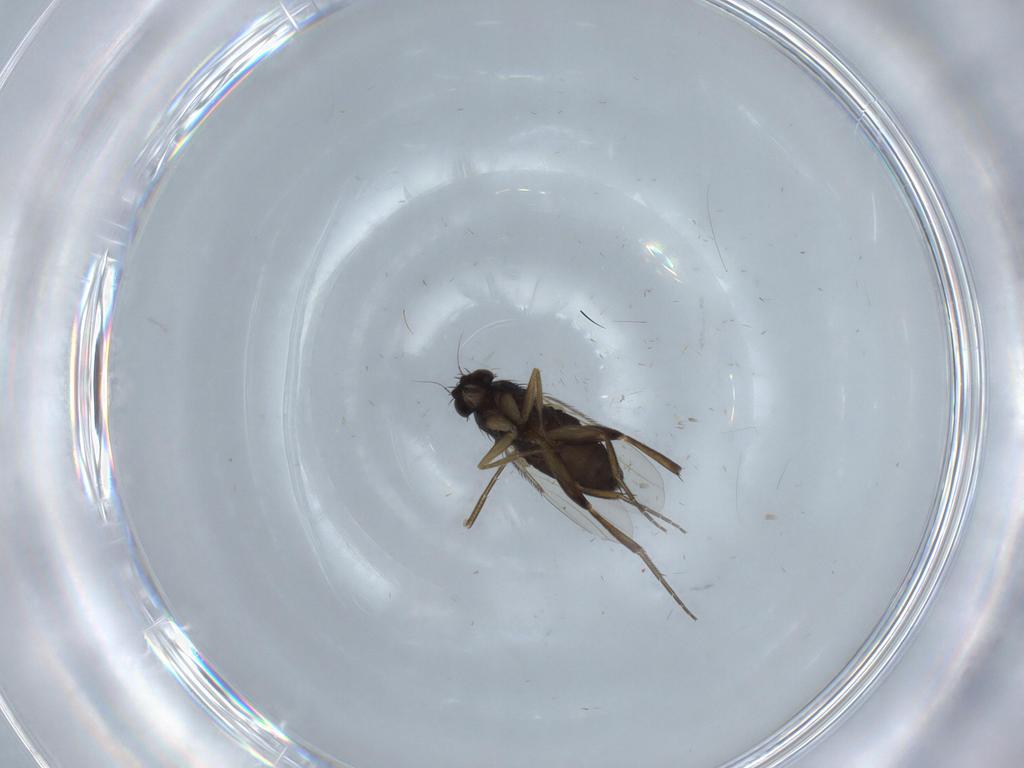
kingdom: Animalia
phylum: Arthropoda
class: Insecta
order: Diptera
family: Phoridae
